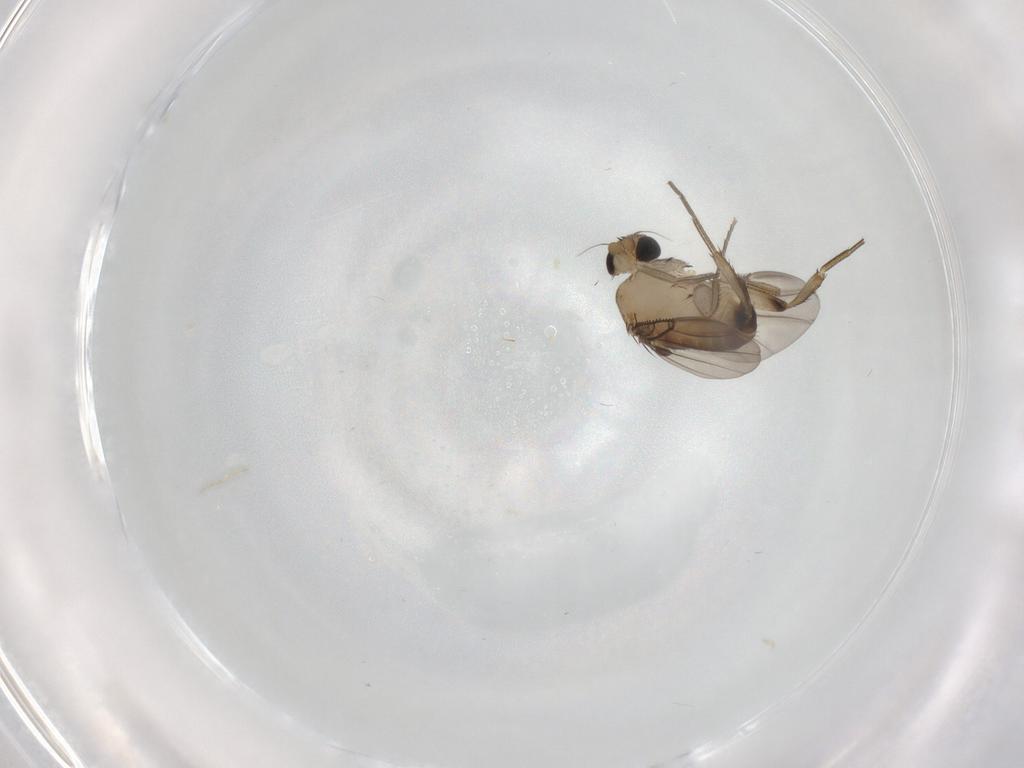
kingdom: Animalia
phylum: Arthropoda
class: Insecta
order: Diptera
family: Phoridae
